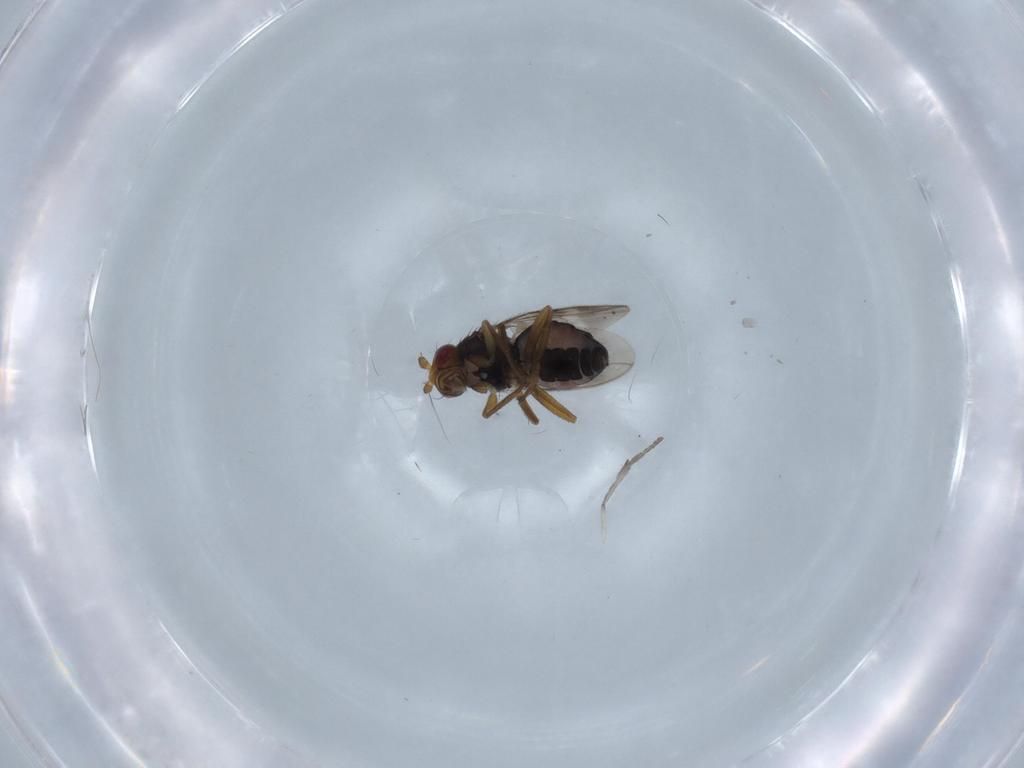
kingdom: Animalia
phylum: Arthropoda
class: Insecta
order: Diptera
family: Psychodidae
